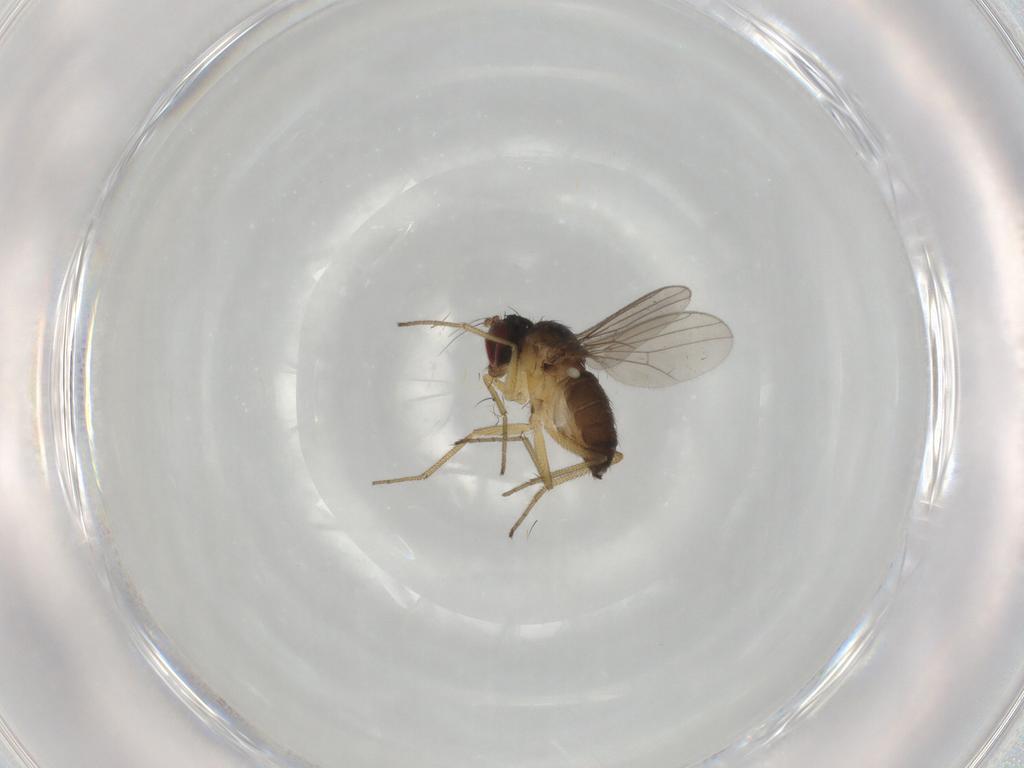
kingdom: Animalia
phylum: Arthropoda
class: Insecta
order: Diptera
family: Dolichopodidae
